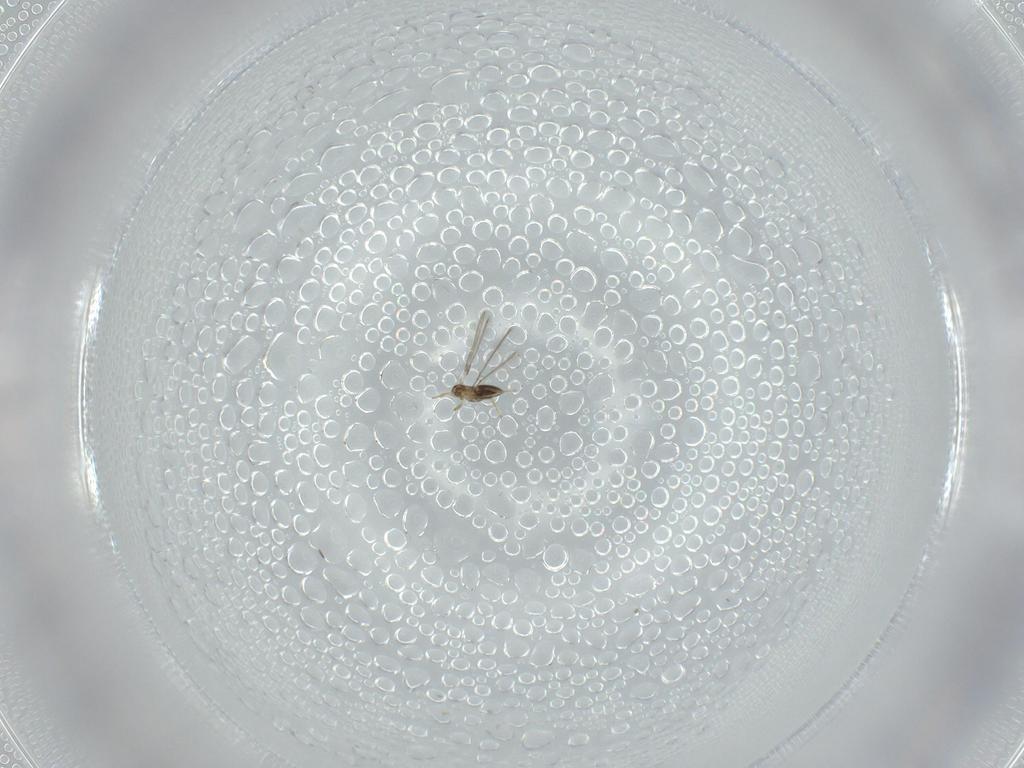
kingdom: Animalia
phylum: Arthropoda
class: Insecta
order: Hymenoptera
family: Mymaridae
